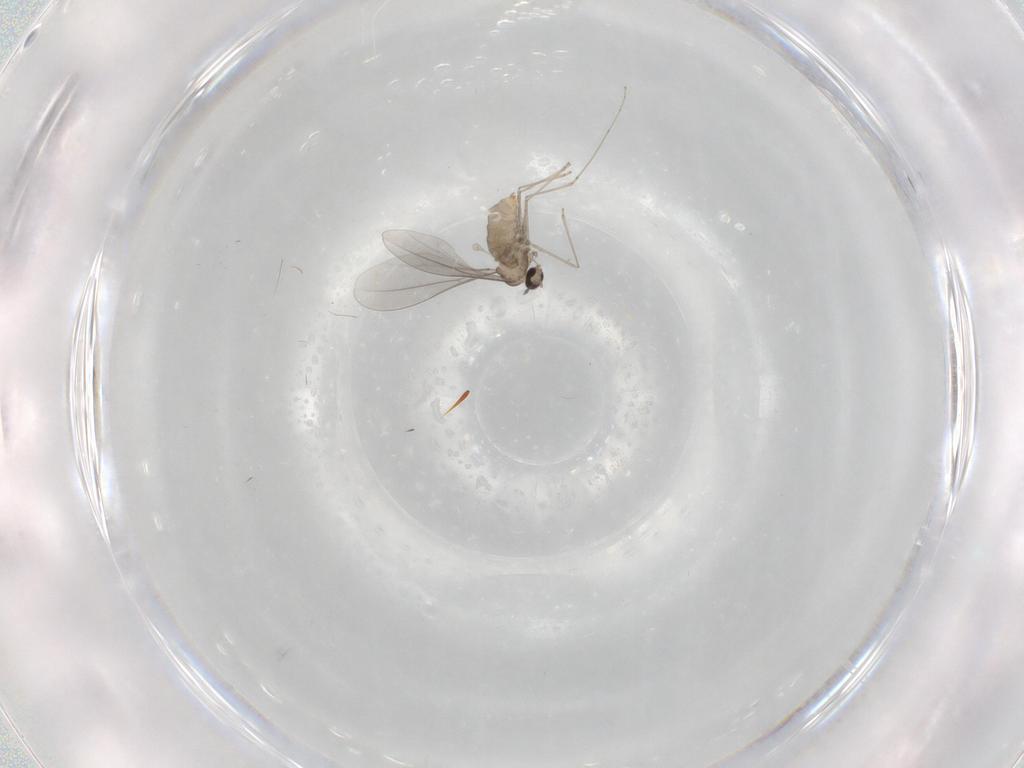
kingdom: Animalia
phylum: Arthropoda
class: Insecta
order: Diptera
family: Cecidomyiidae
